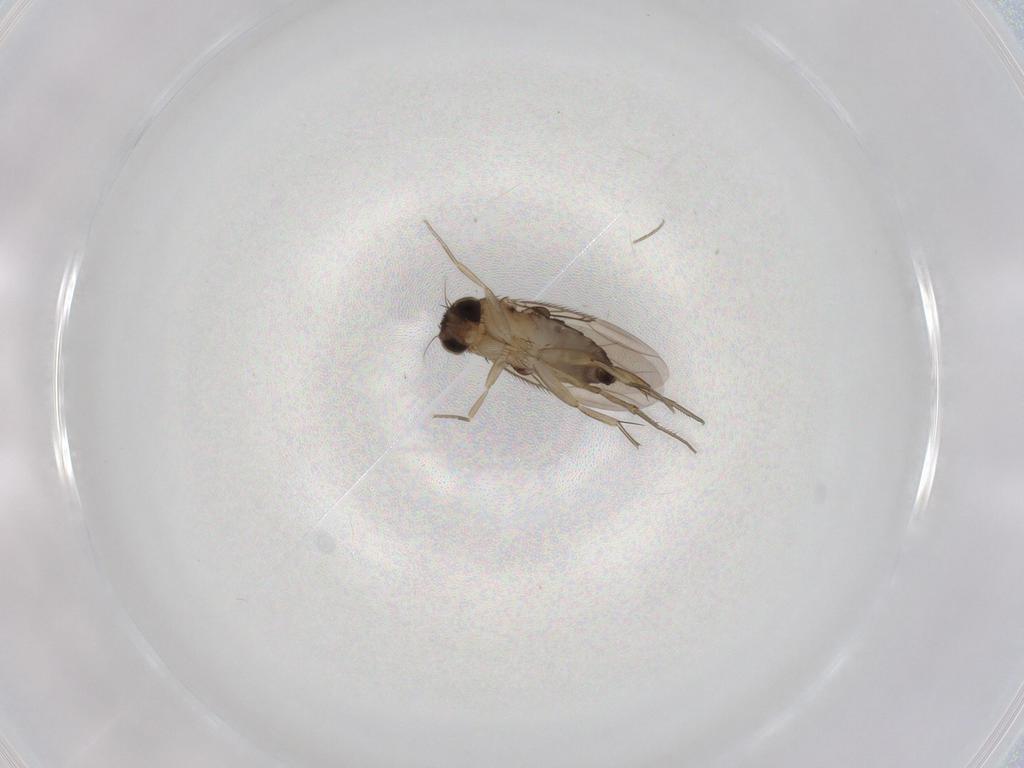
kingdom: Animalia
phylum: Arthropoda
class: Insecta
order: Diptera
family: Phoridae
